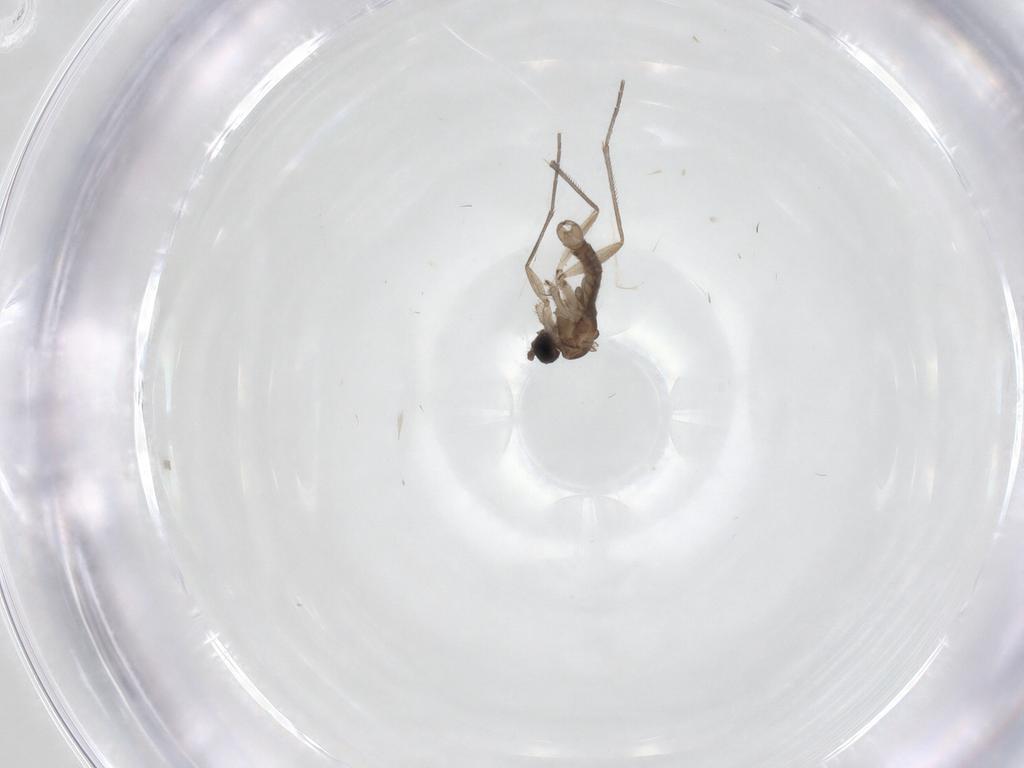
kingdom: Animalia
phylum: Arthropoda
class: Insecta
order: Diptera
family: Sciaridae
